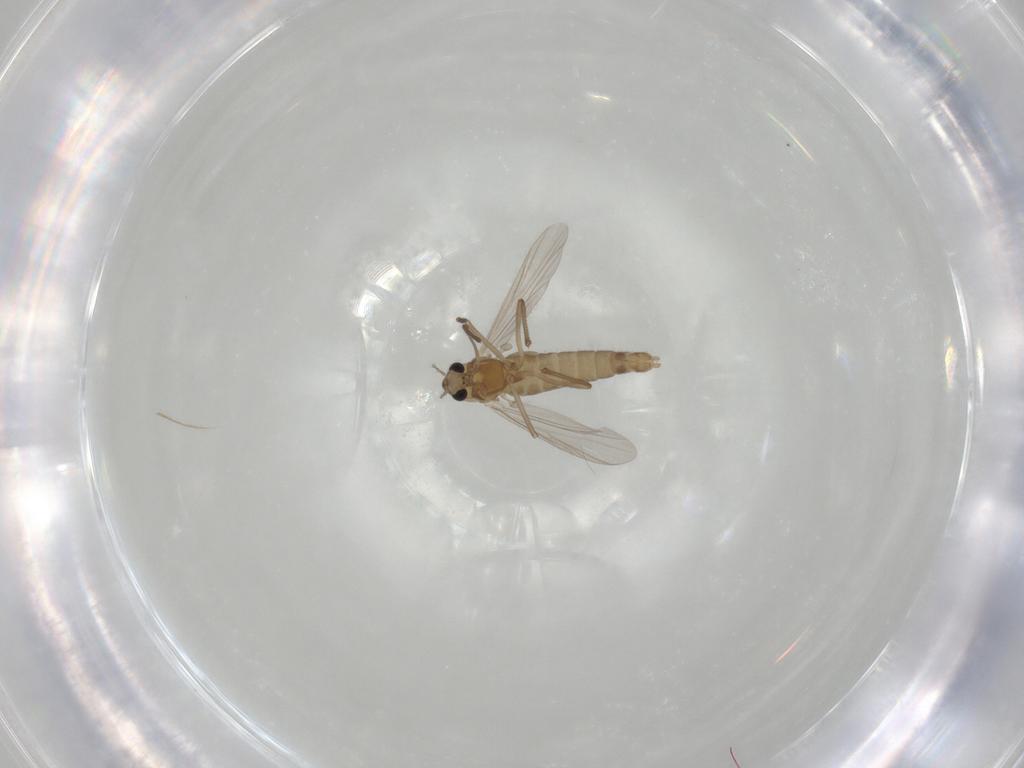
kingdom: Animalia
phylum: Arthropoda
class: Insecta
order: Diptera
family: Chironomidae
